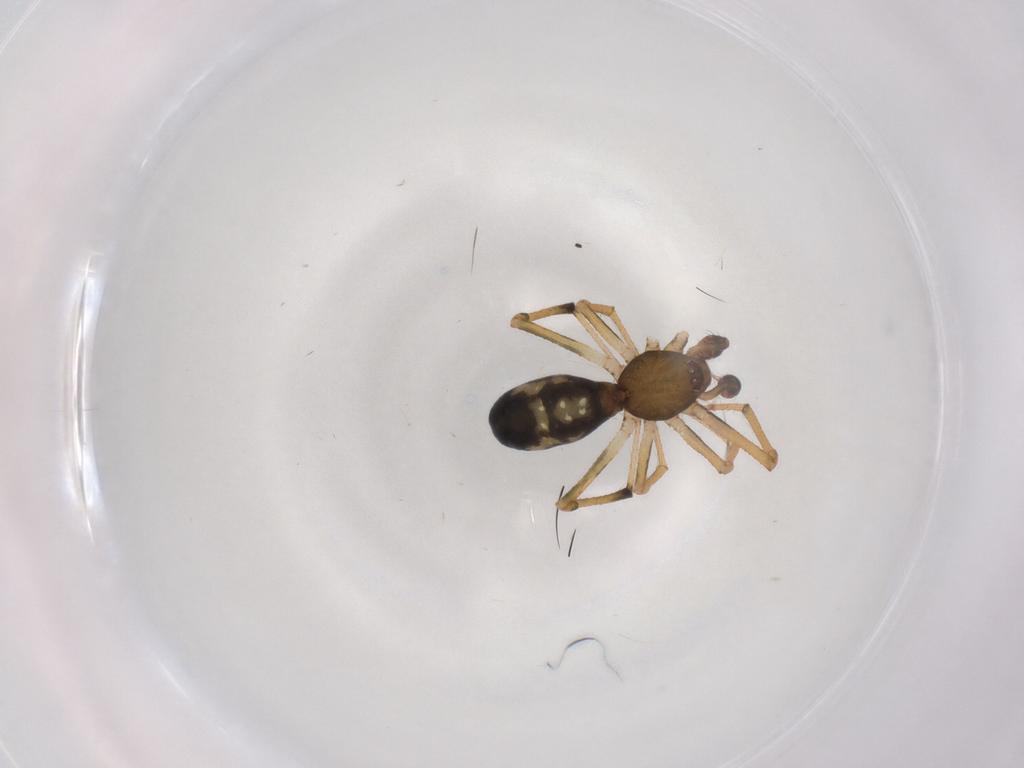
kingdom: Animalia
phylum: Arthropoda
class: Arachnida
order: Araneae
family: Theridiidae
